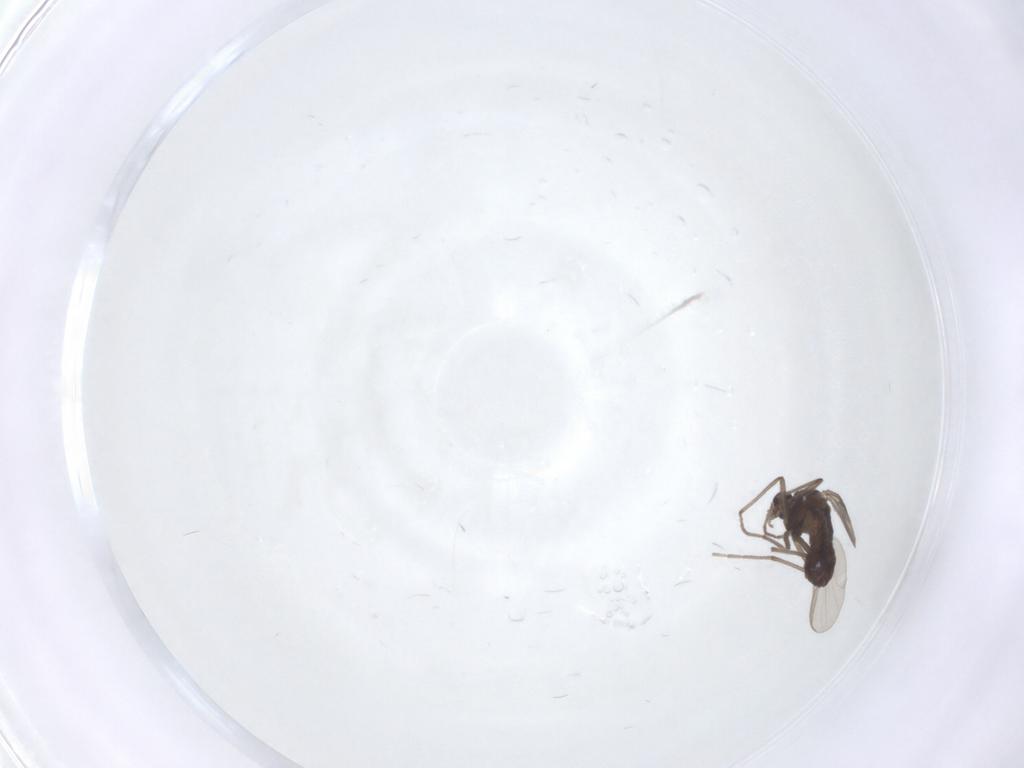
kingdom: Animalia
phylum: Arthropoda
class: Insecta
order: Diptera
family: Chironomidae
